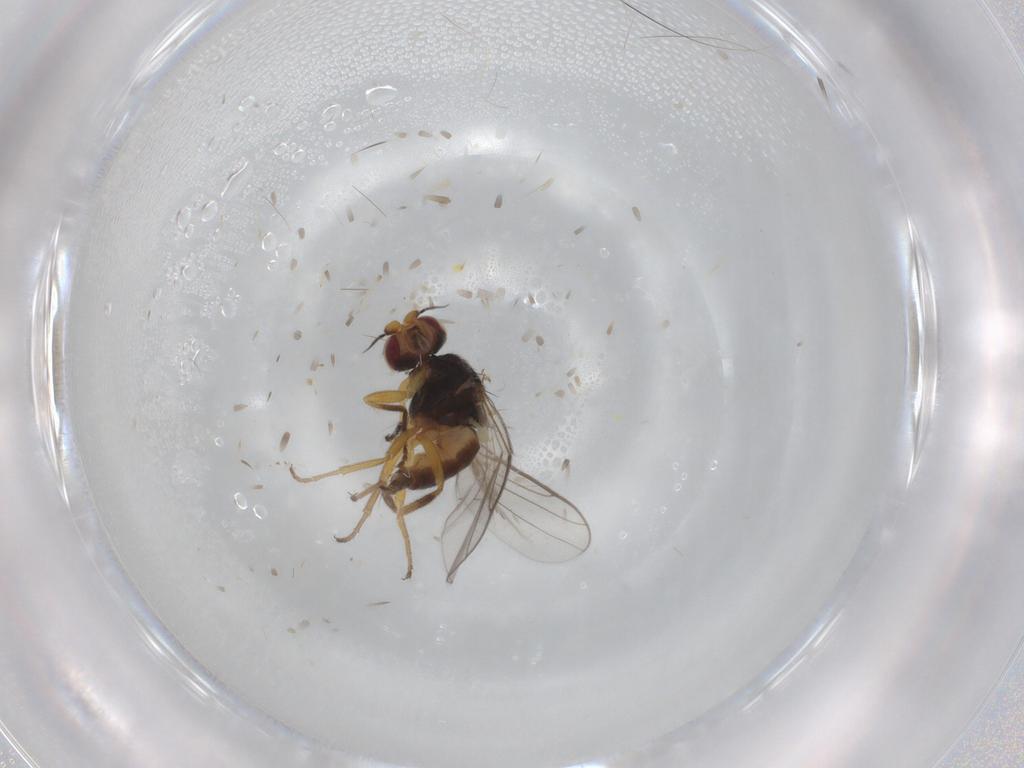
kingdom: Animalia
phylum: Arthropoda
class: Insecta
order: Diptera
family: Chloropidae
